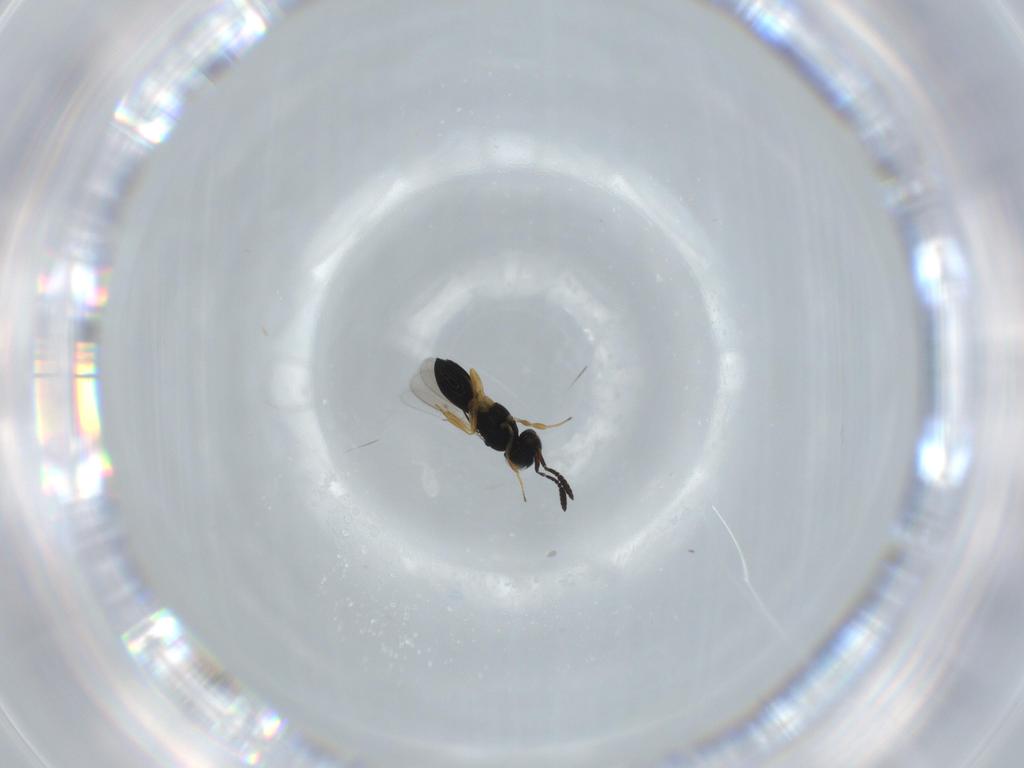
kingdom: Animalia
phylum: Arthropoda
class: Insecta
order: Hymenoptera
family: Scelionidae
